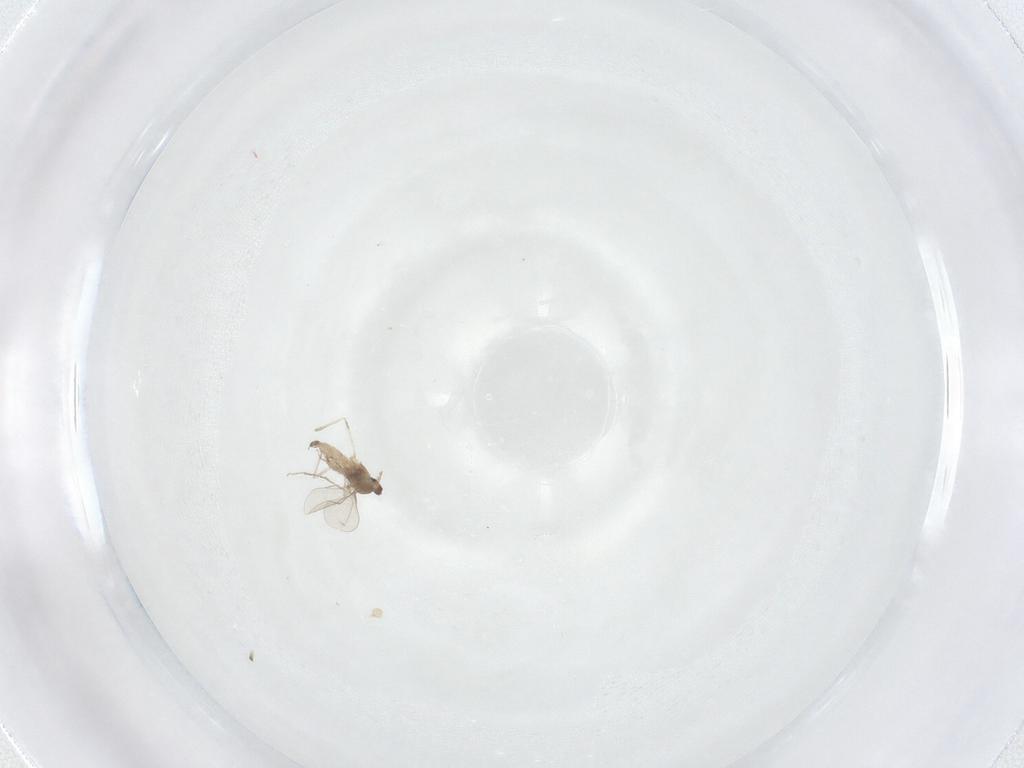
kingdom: Animalia
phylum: Arthropoda
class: Insecta
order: Diptera
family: Cecidomyiidae
